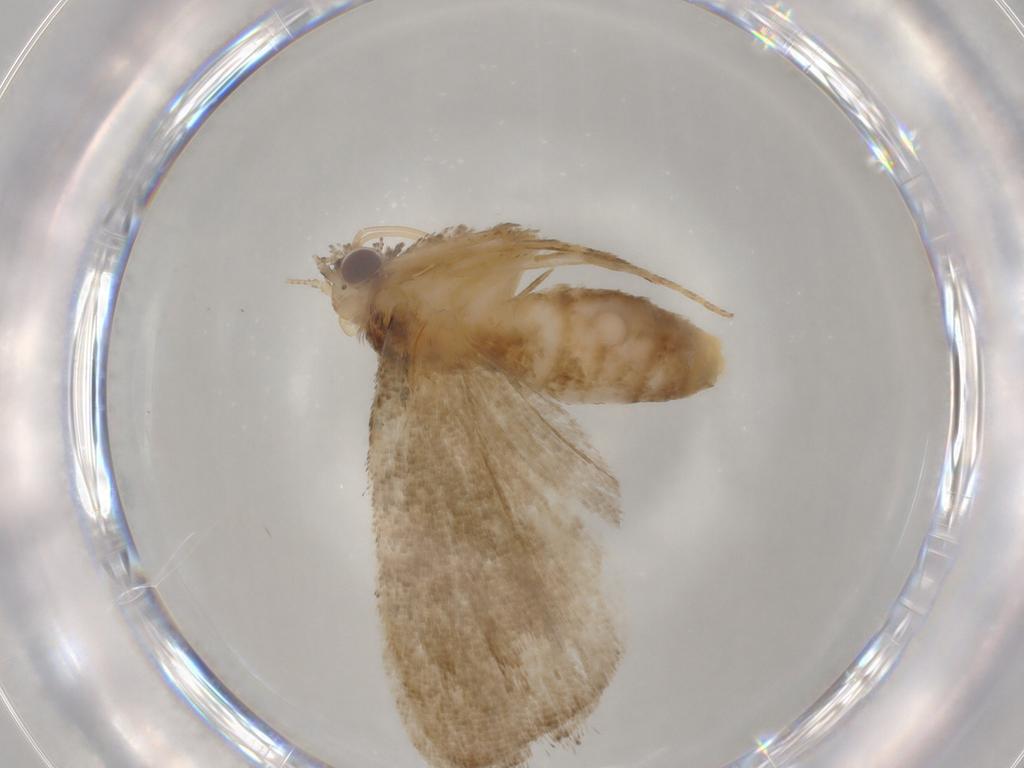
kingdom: Animalia
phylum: Arthropoda
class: Insecta
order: Lepidoptera
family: Erebidae
